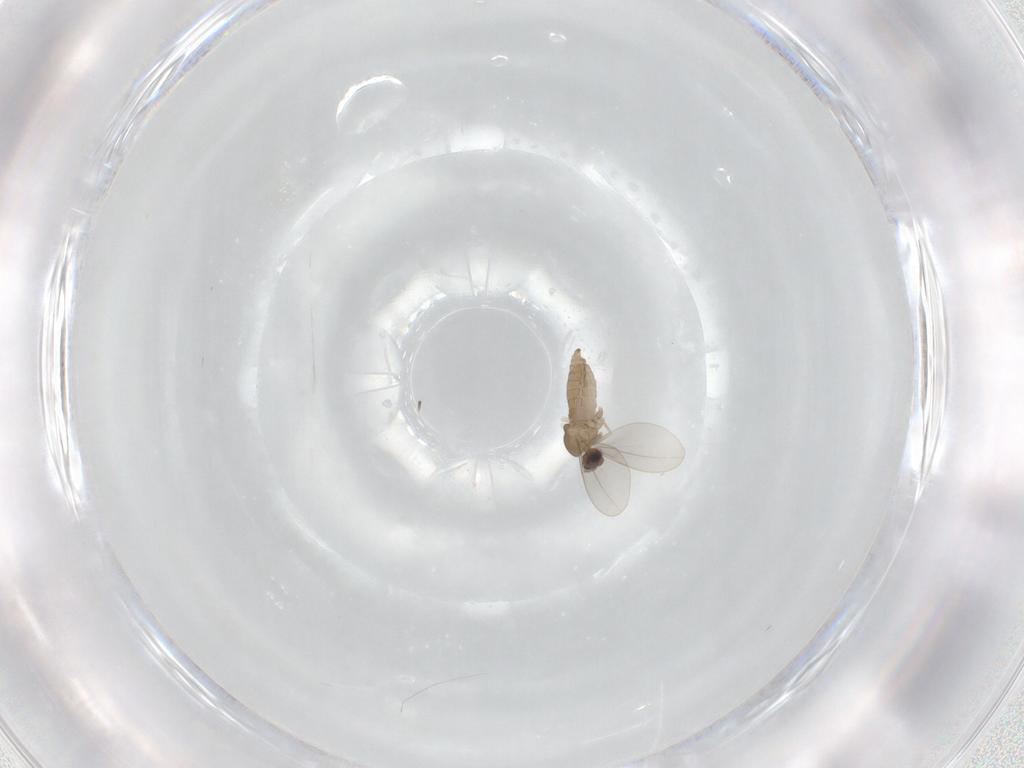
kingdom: Animalia
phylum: Arthropoda
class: Insecta
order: Diptera
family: Cecidomyiidae
